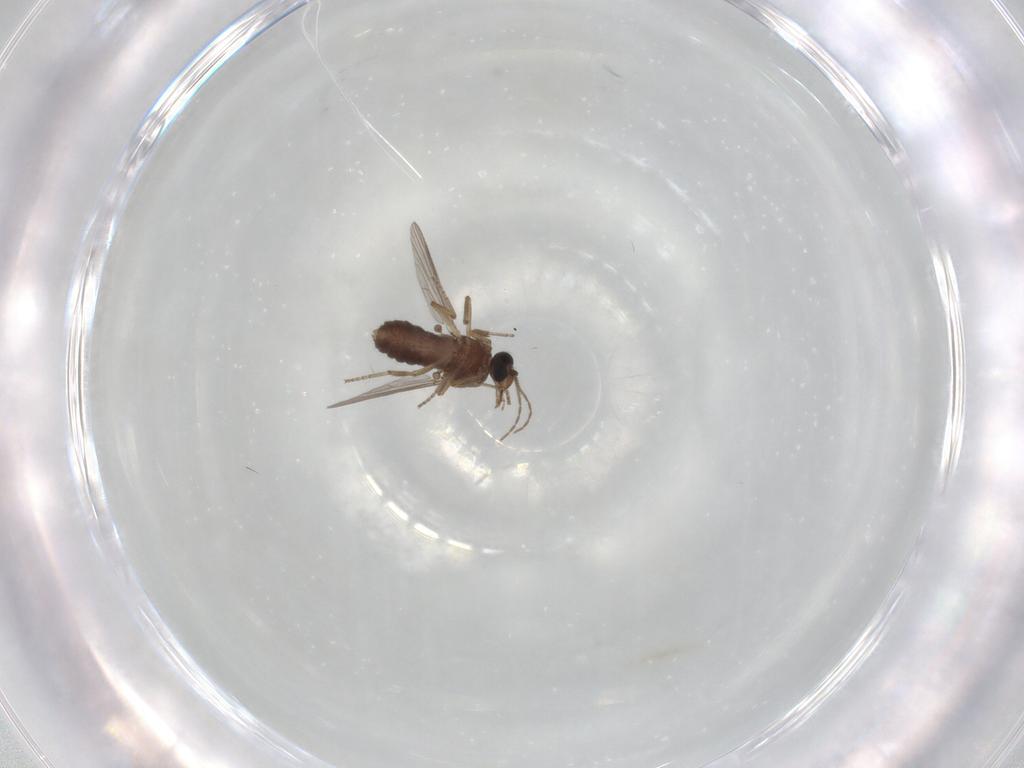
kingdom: Animalia
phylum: Arthropoda
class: Insecta
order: Diptera
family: Ceratopogonidae
